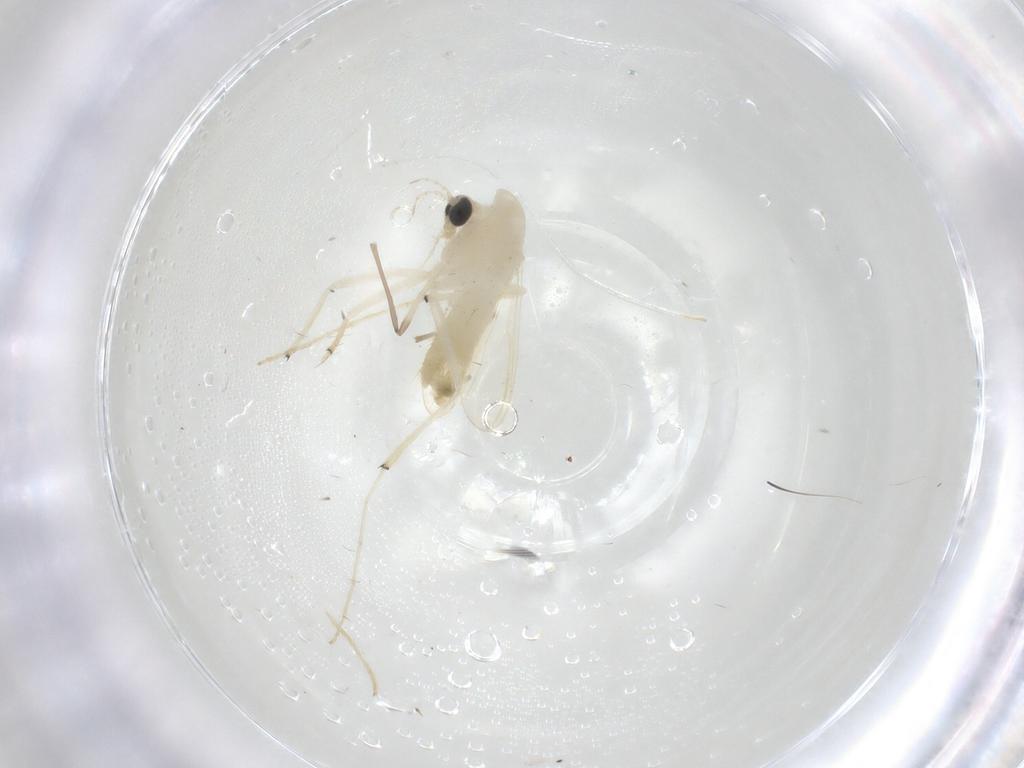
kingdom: Animalia
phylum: Arthropoda
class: Insecta
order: Diptera
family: Chironomidae
